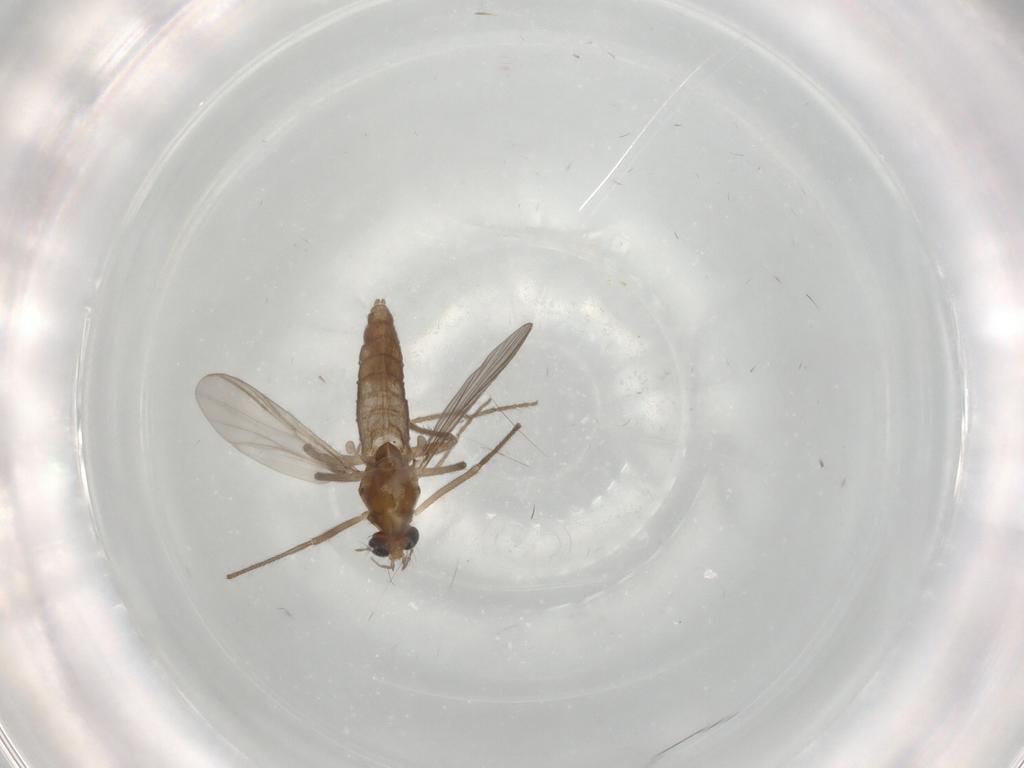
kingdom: Animalia
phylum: Arthropoda
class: Insecta
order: Diptera
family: Chironomidae
